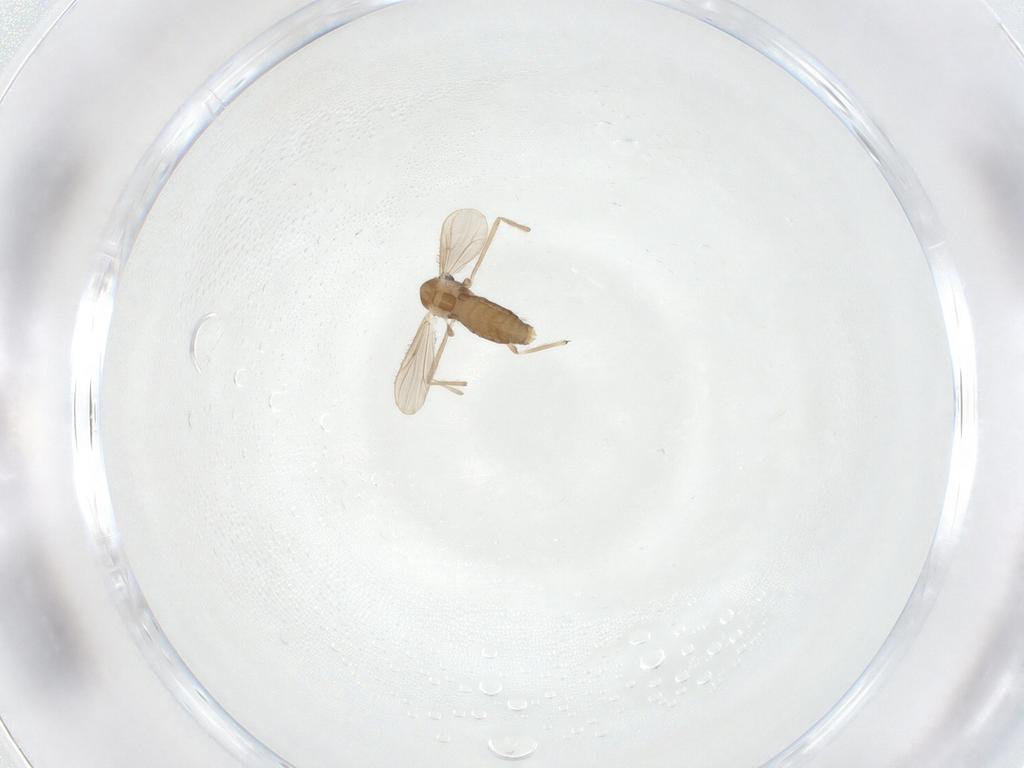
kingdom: Animalia
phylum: Arthropoda
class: Insecta
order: Diptera
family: Chironomidae
